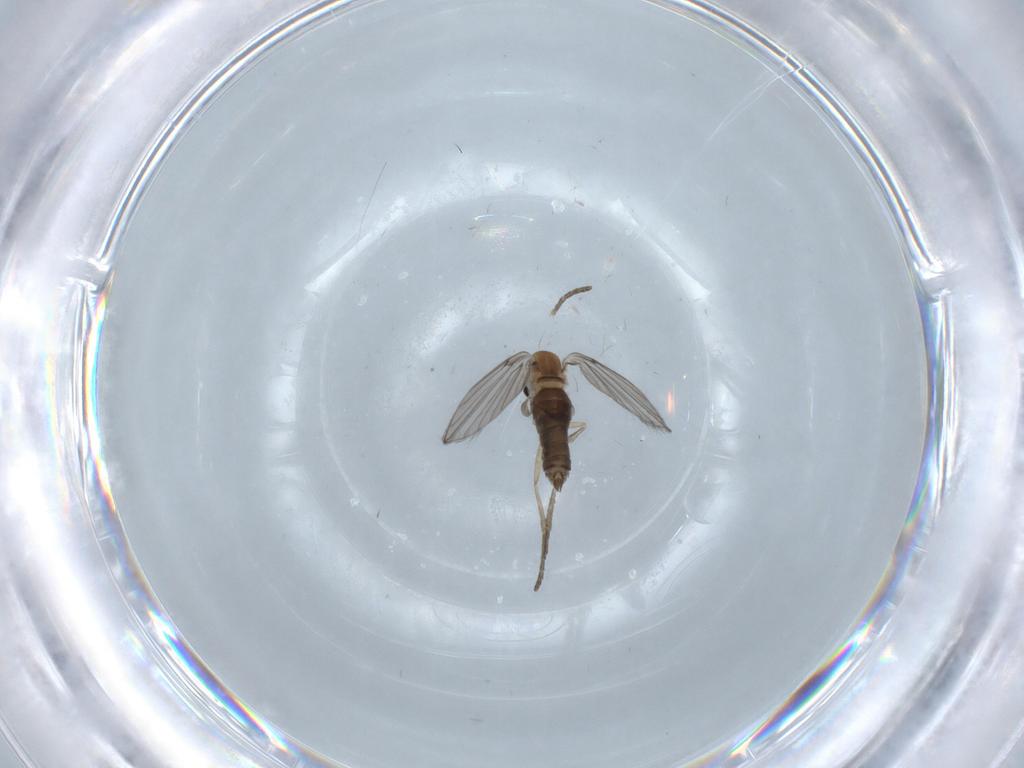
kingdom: Animalia
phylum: Arthropoda
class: Insecta
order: Diptera
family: Psychodidae
